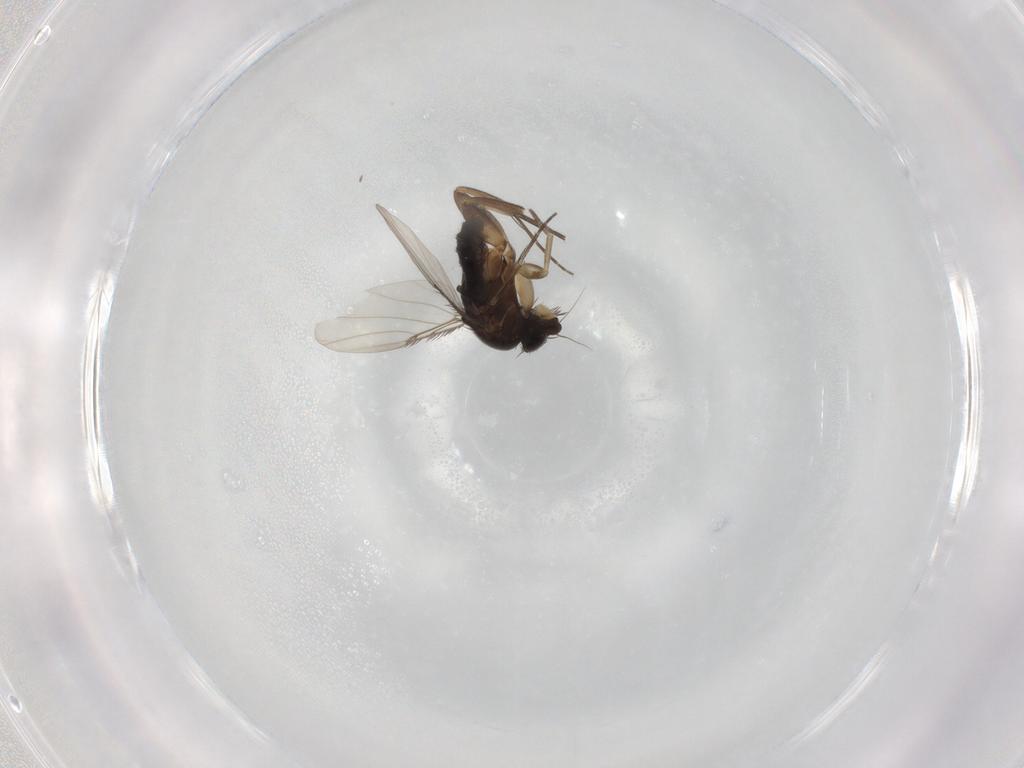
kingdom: Animalia
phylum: Arthropoda
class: Insecta
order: Diptera
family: Phoridae
